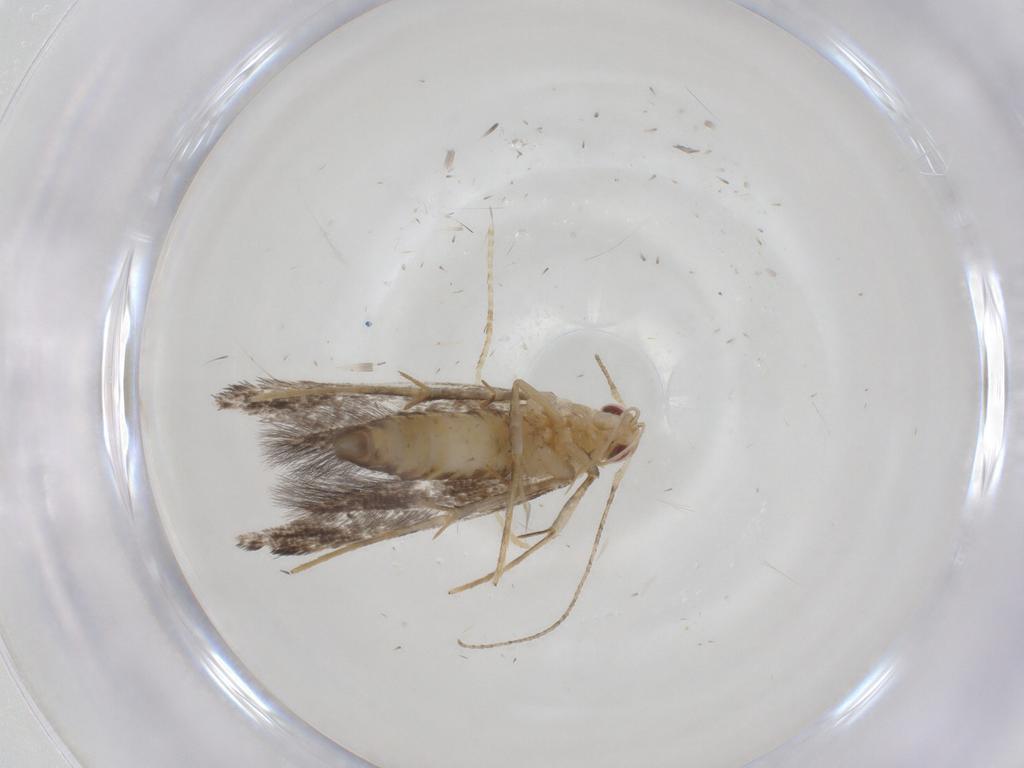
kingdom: Animalia
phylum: Arthropoda
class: Insecta
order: Lepidoptera
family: Cosmopterigidae
